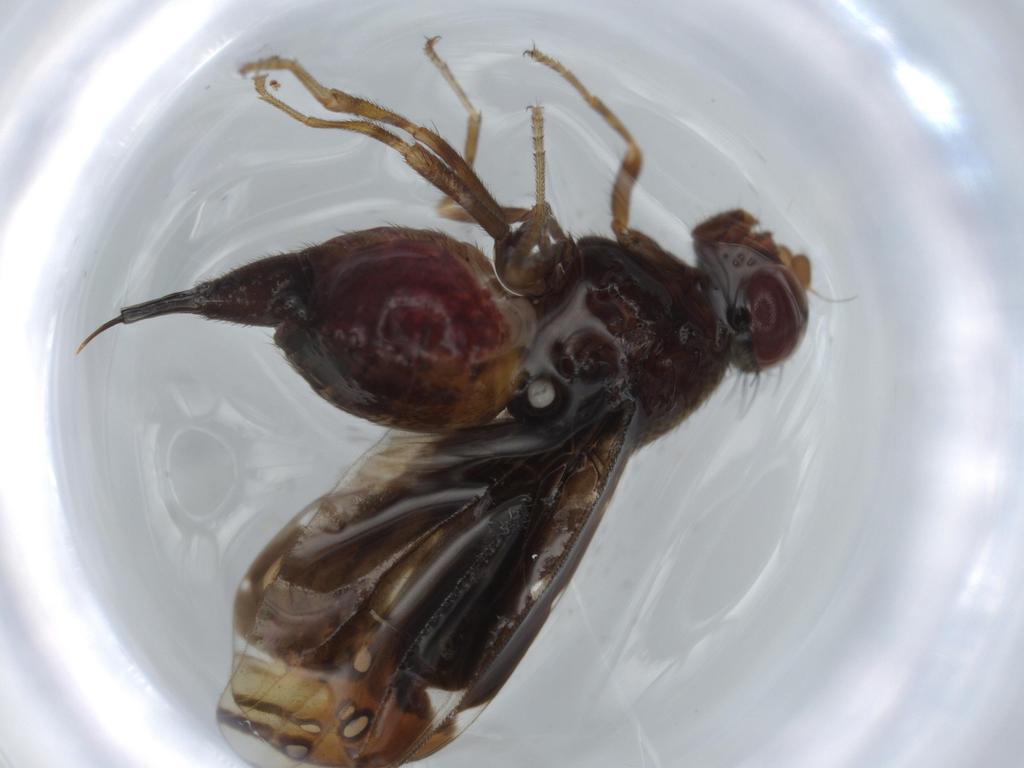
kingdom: Animalia
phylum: Arthropoda
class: Insecta
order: Diptera
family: Ulidiidae
